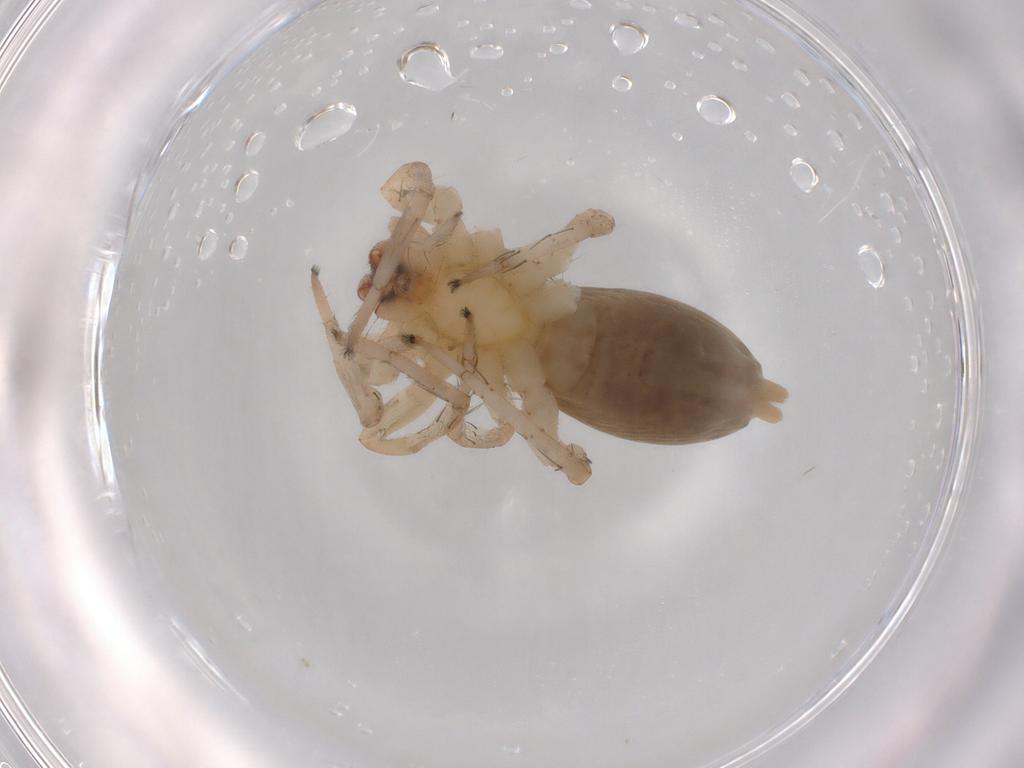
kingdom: Animalia
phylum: Arthropoda
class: Arachnida
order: Araneae
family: Anyphaenidae
